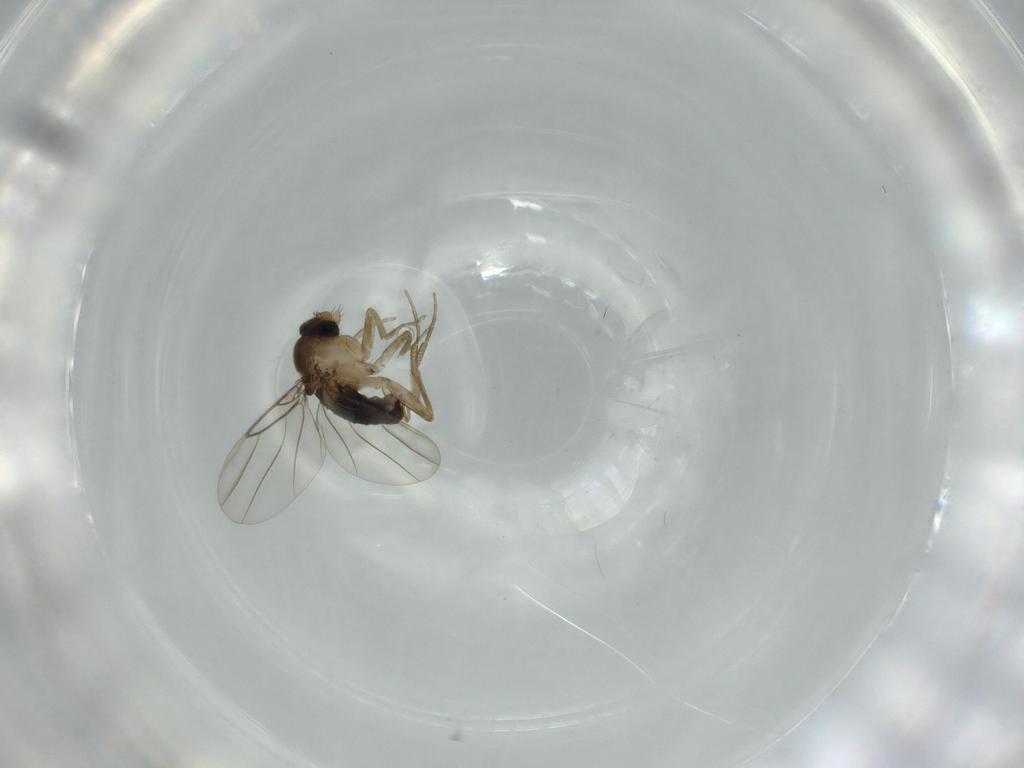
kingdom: Animalia
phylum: Arthropoda
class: Insecta
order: Diptera
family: Phoridae
